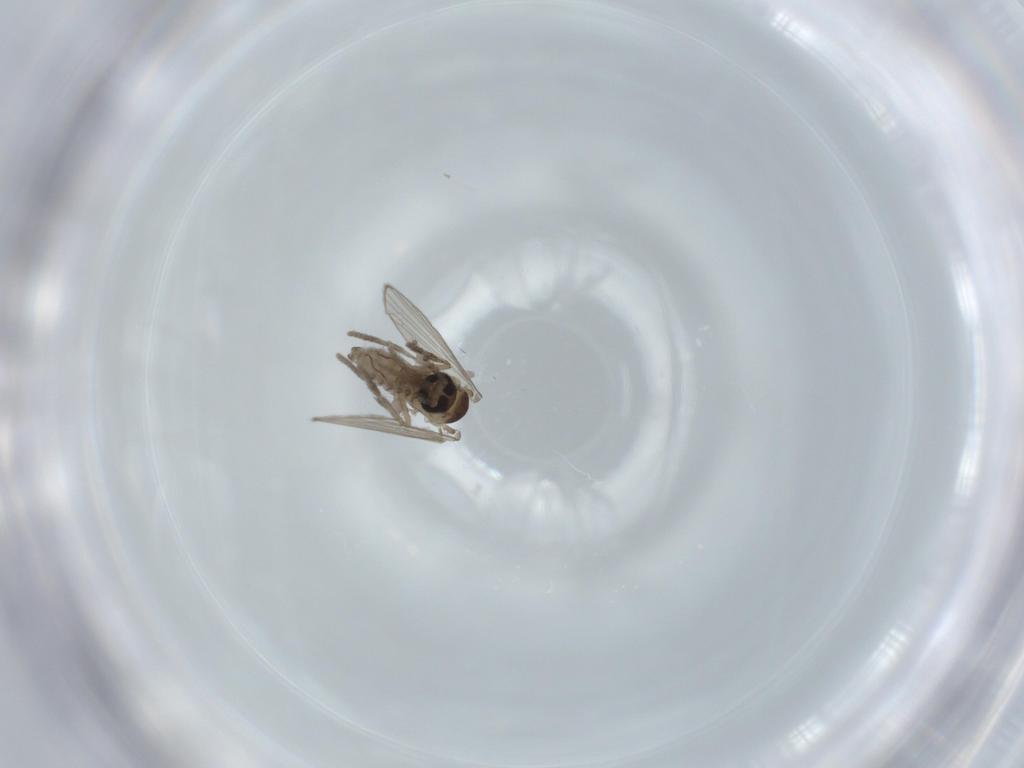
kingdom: Animalia
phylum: Arthropoda
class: Insecta
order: Diptera
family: Psychodidae
